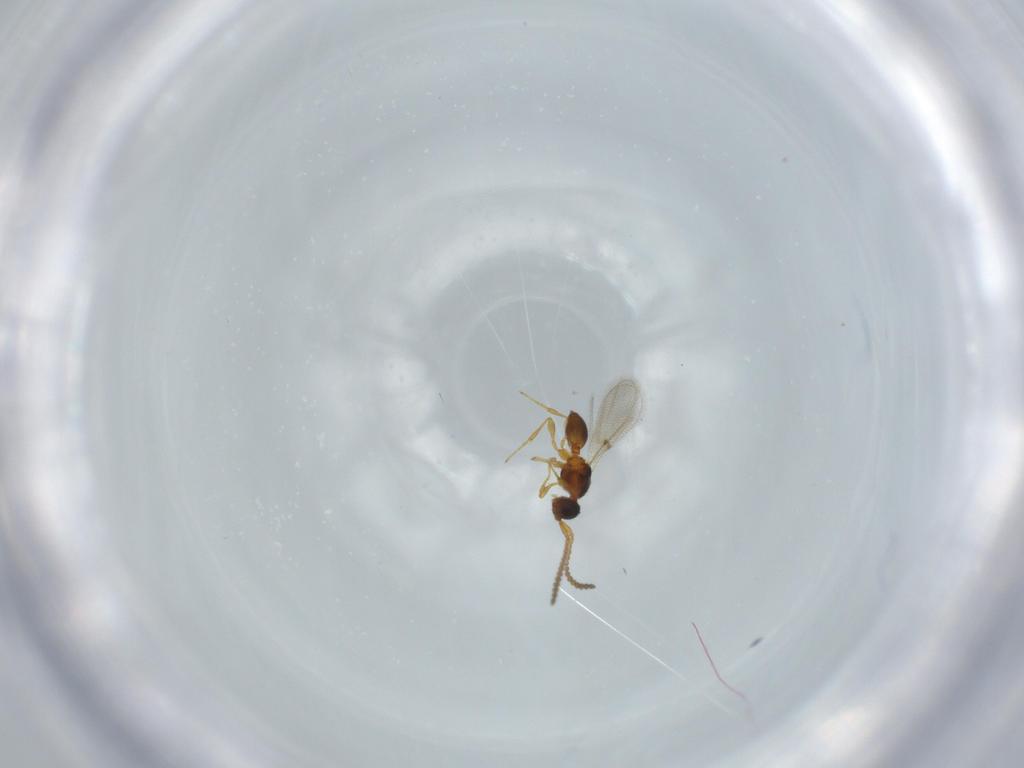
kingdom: Animalia
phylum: Arthropoda
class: Insecta
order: Hymenoptera
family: Diapriidae
